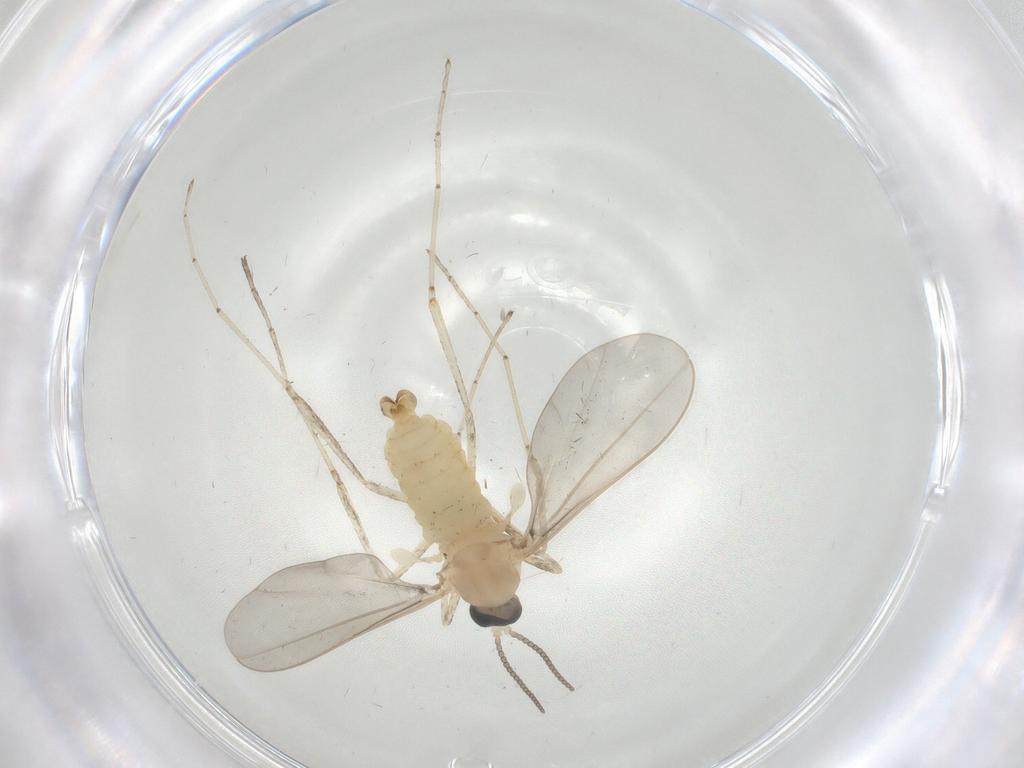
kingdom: Animalia
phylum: Arthropoda
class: Insecta
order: Diptera
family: Cecidomyiidae
